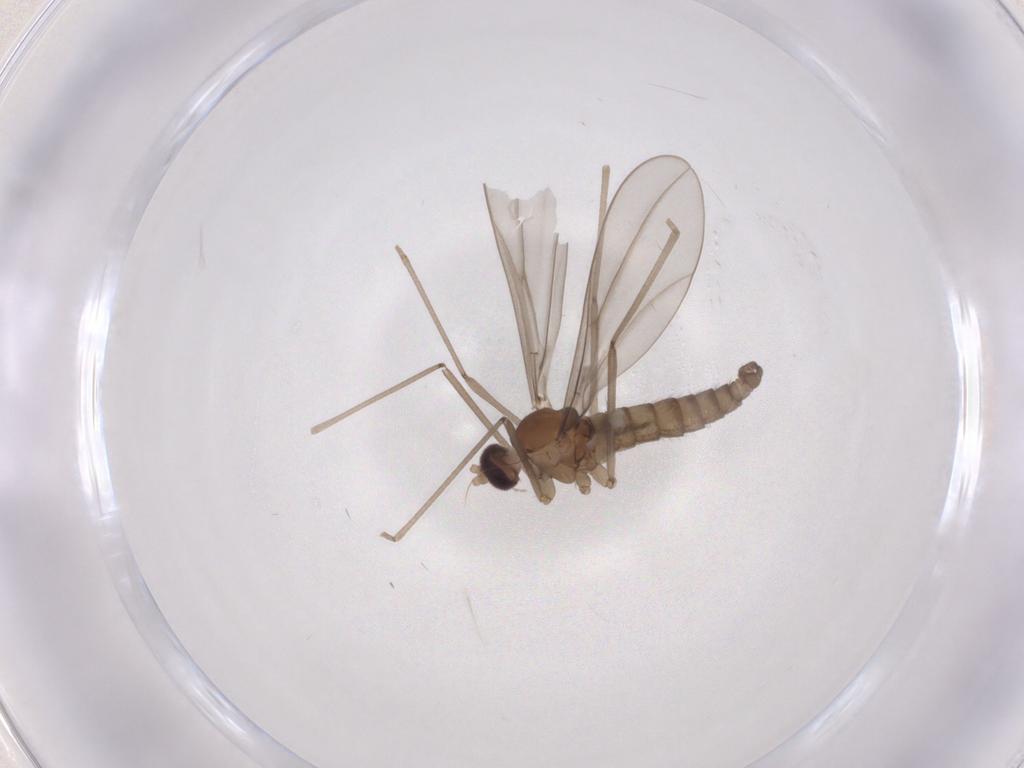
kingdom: Animalia
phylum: Arthropoda
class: Insecta
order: Diptera
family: Cecidomyiidae
